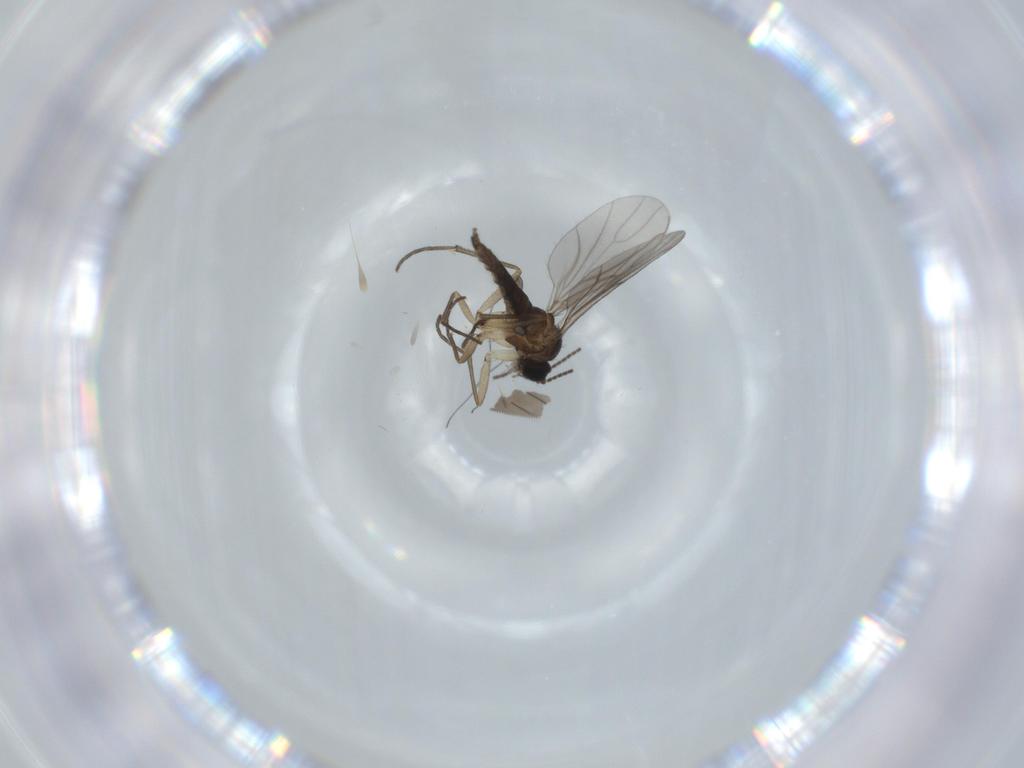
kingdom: Animalia
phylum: Arthropoda
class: Insecta
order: Diptera
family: Sciaridae
